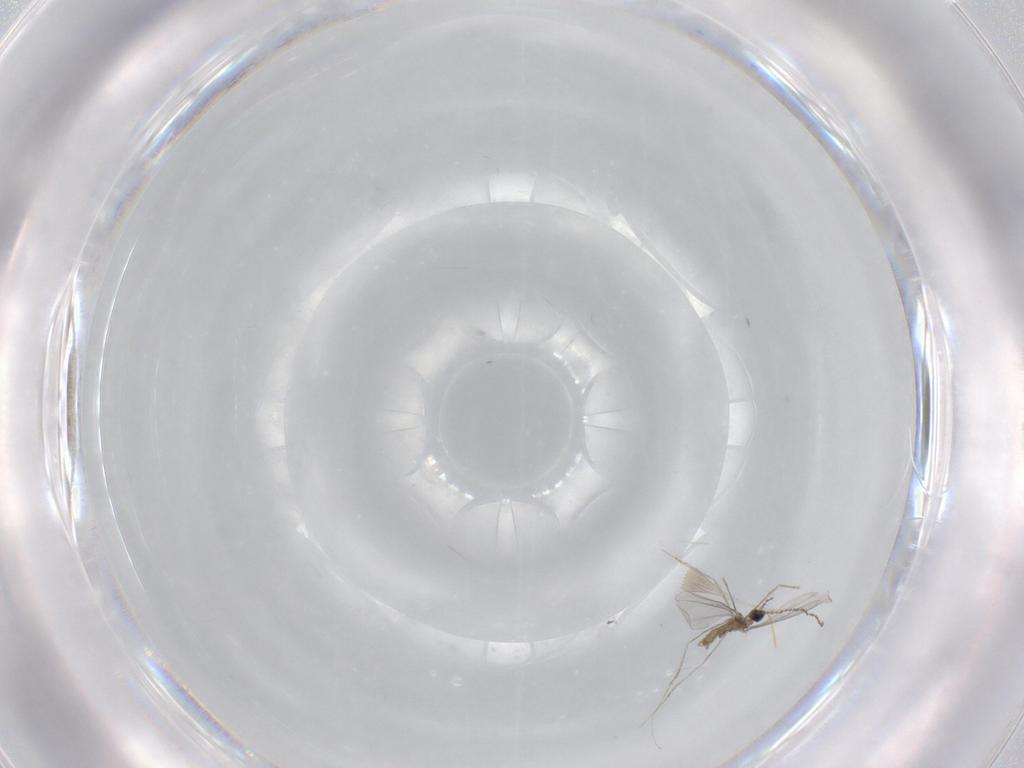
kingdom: Animalia
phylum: Arthropoda
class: Insecta
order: Diptera
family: Cecidomyiidae
